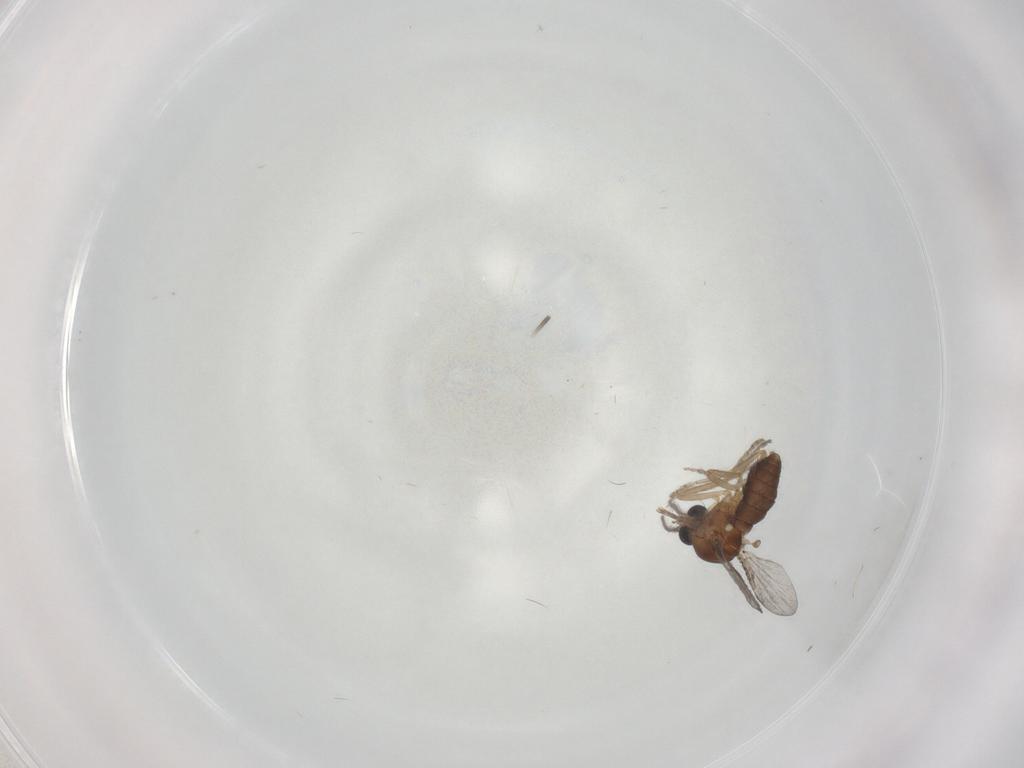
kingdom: Animalia
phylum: Arthropoda
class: Insecta
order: Diptera
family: Ceratopogonidae
